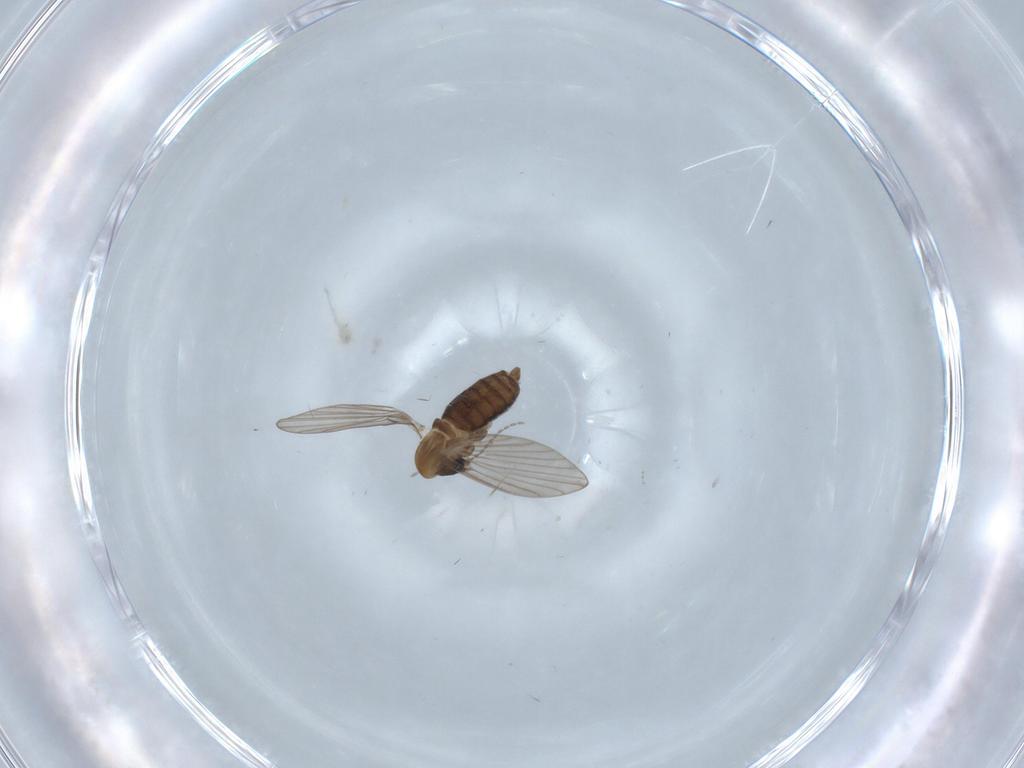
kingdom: Animalia
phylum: Arthropoda
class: Insecta
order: Diptera
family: Psychodidae
